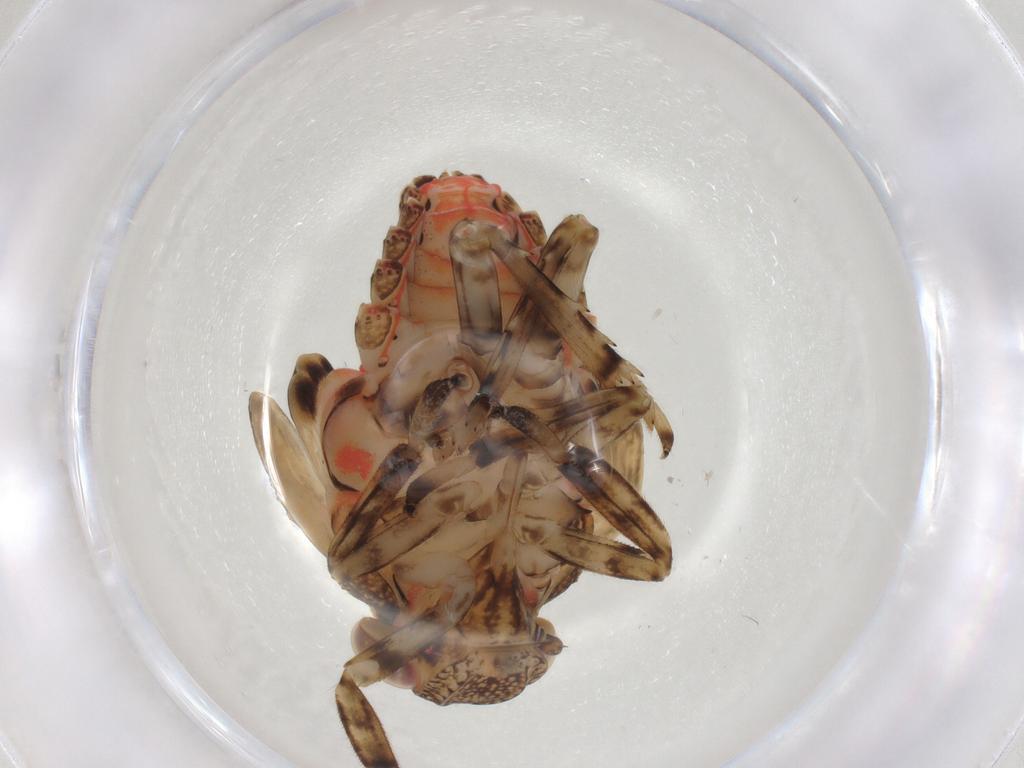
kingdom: Animalia
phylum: Arthropoda
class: Insecta
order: Hemiptera
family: Issidae
